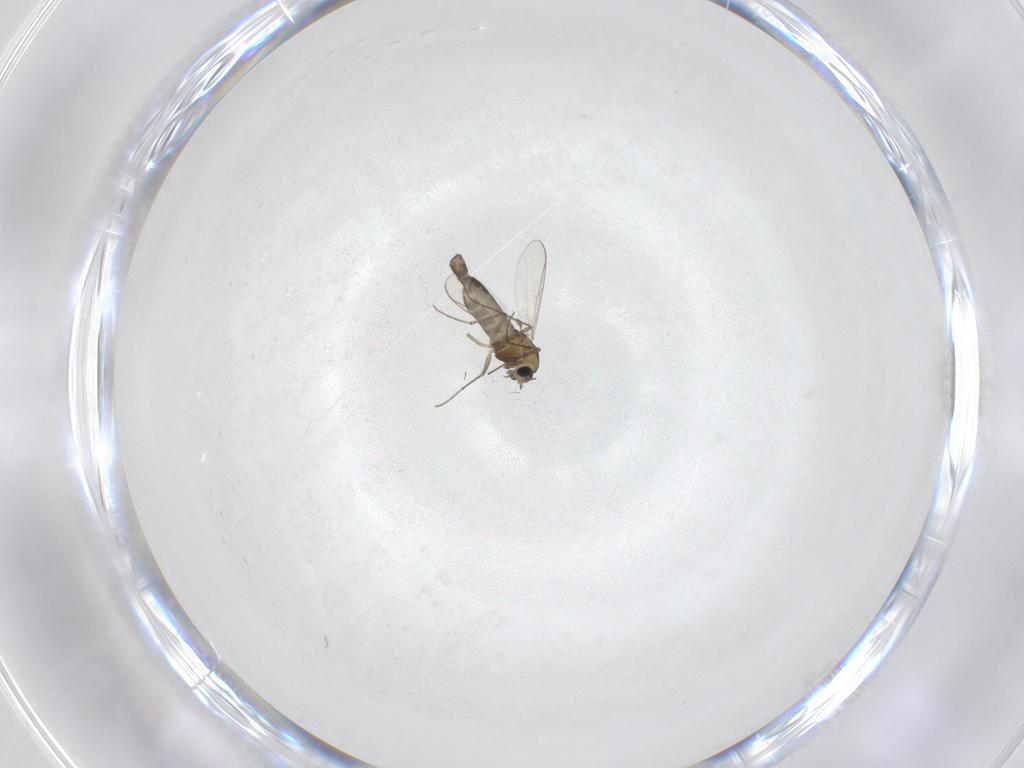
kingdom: Animalia
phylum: Arthropoda
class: Insecta
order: Diptera
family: Chironomidae
